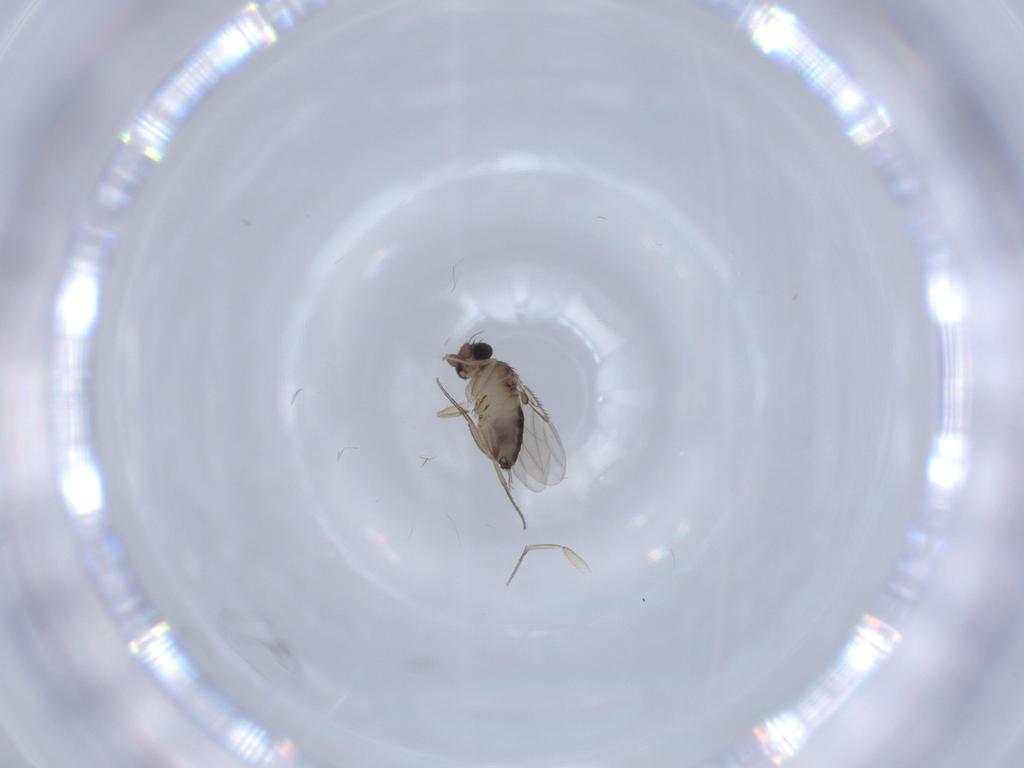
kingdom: Animalia
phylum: Arthropoda
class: Insecta
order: Diptera
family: Phoridae
